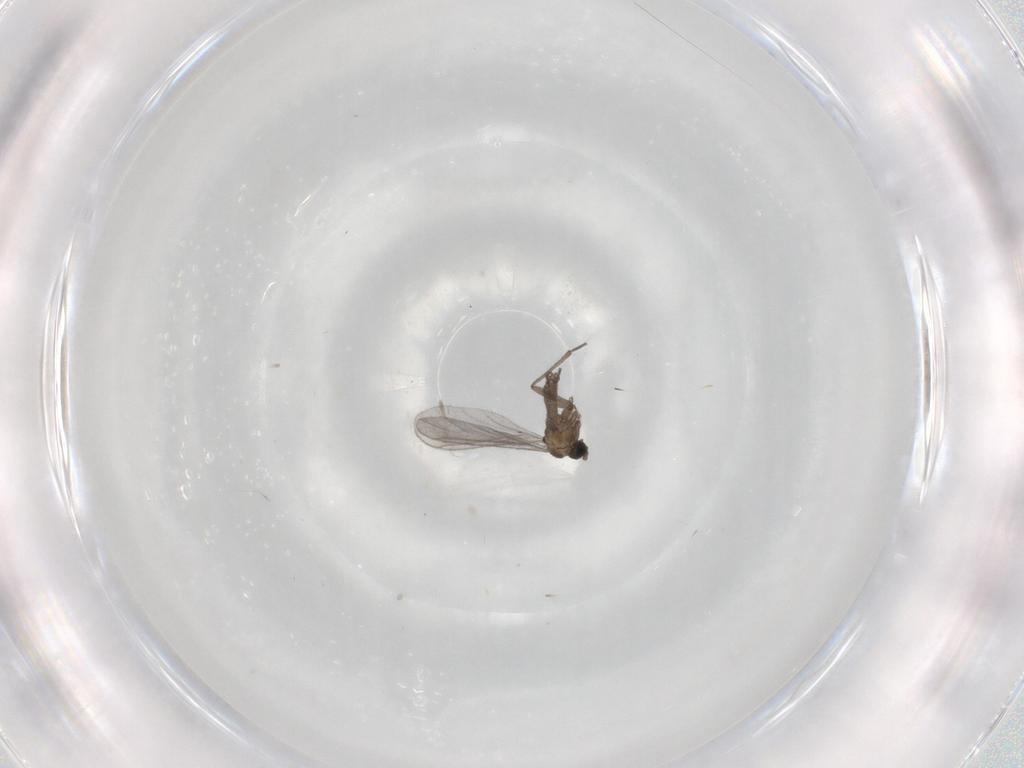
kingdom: Animalia
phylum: Arthropoda
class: Insecta
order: Diptera
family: Sciaridae
